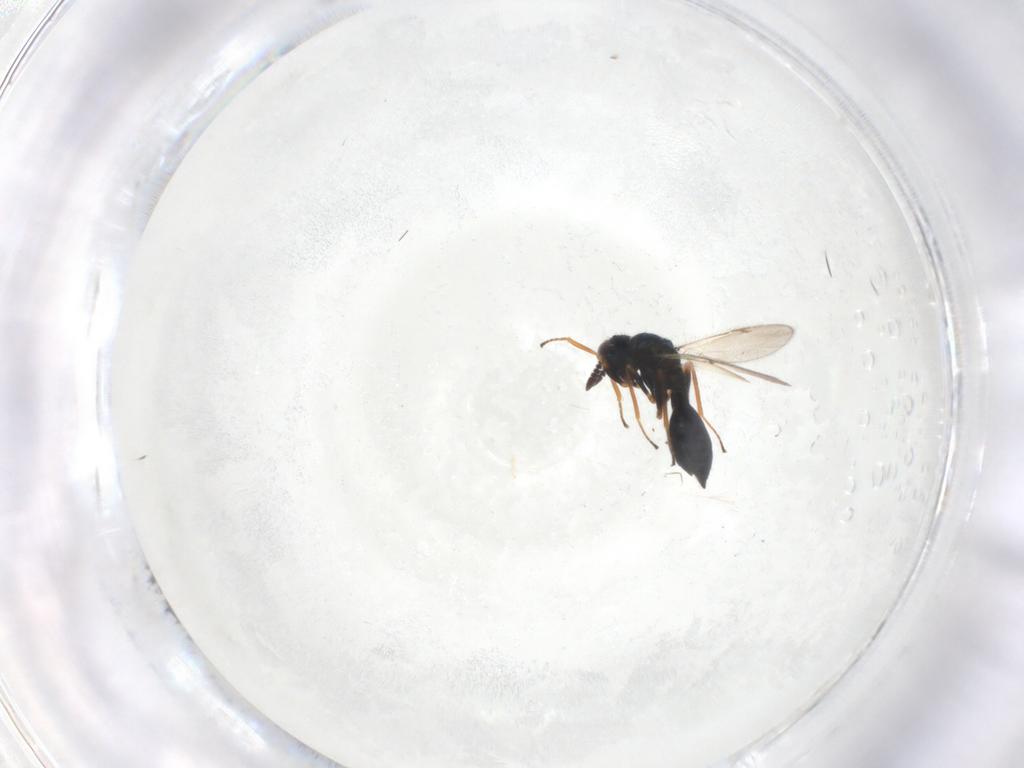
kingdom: Animalia
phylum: Arthropoda
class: Insecta
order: Hymenoptera
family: Chalcidoidea_incertae_sedis
